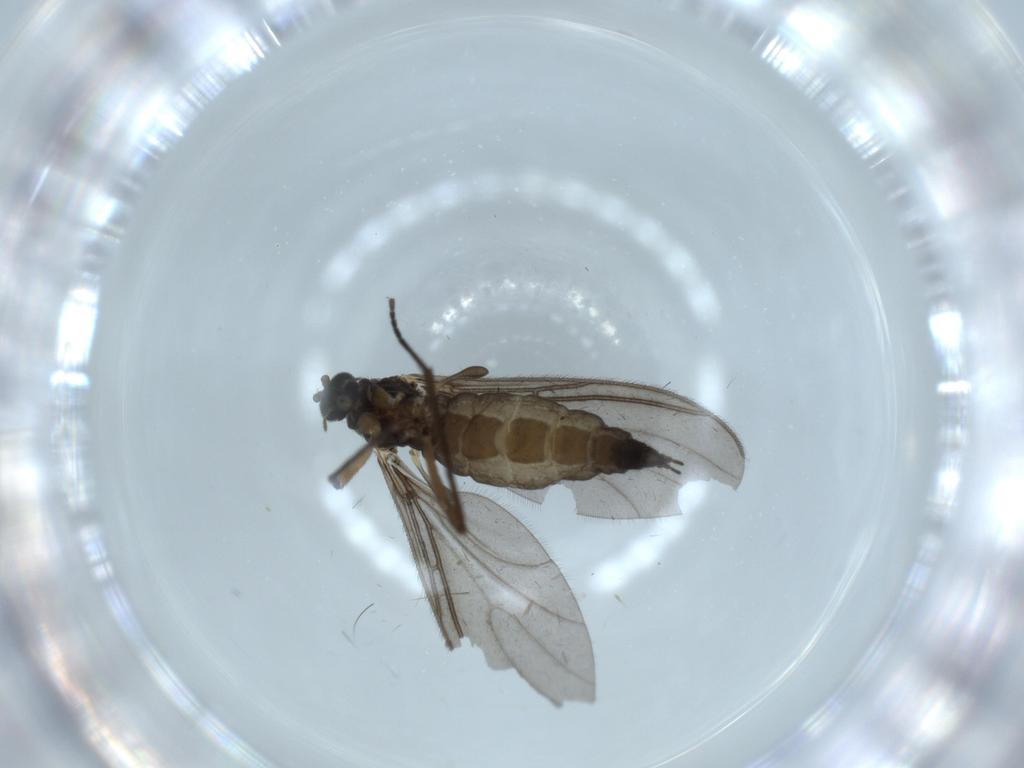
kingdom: Animalia
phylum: Arthropoda
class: Insecta
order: Diptera
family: Sciaridae
